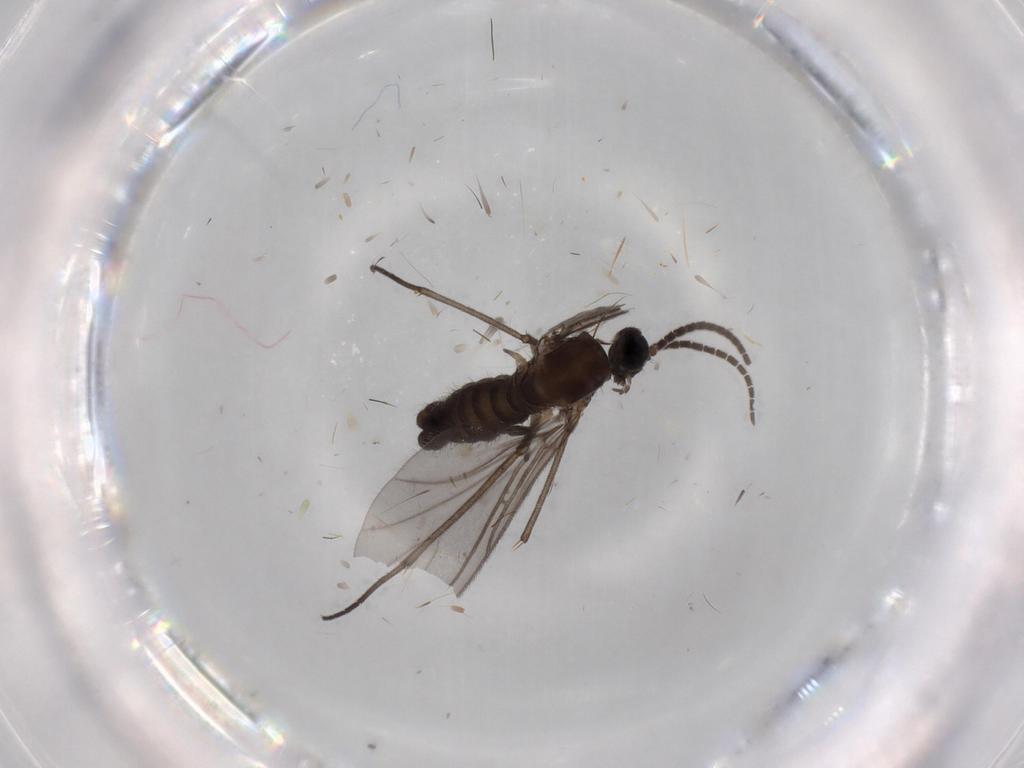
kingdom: Animalia
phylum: Arthropoda
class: Insecta
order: Diptera
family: Sciaridae
